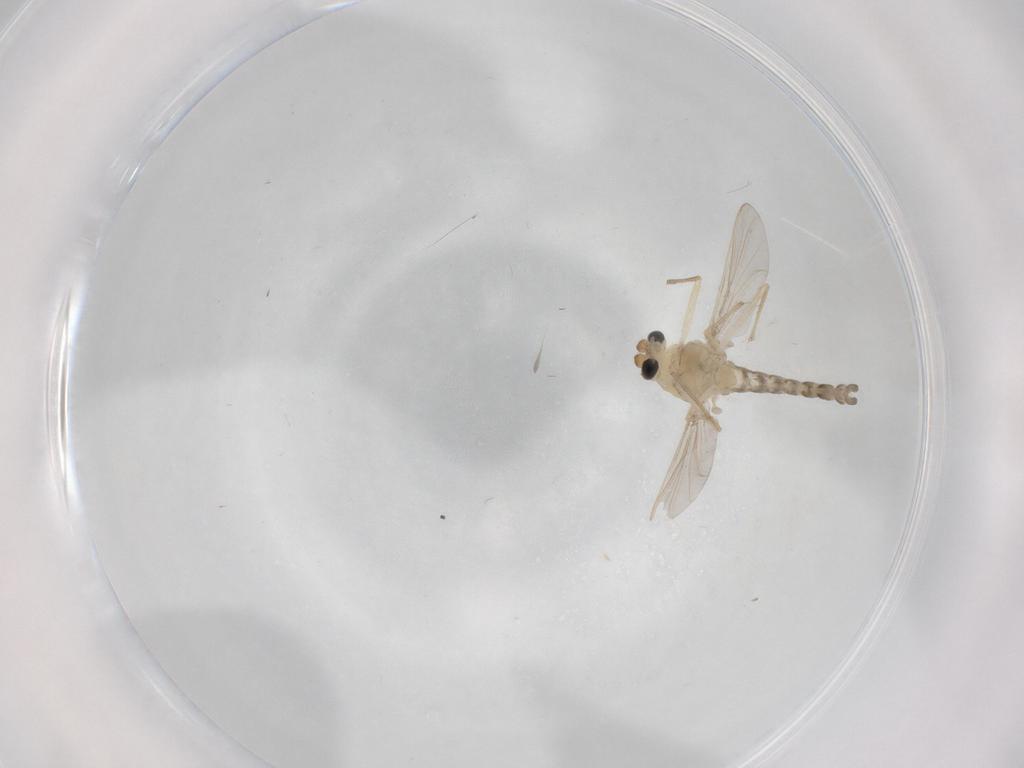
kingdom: Animalia
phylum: Arthropoda
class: Insecta
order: Diptera
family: Chironomidae
